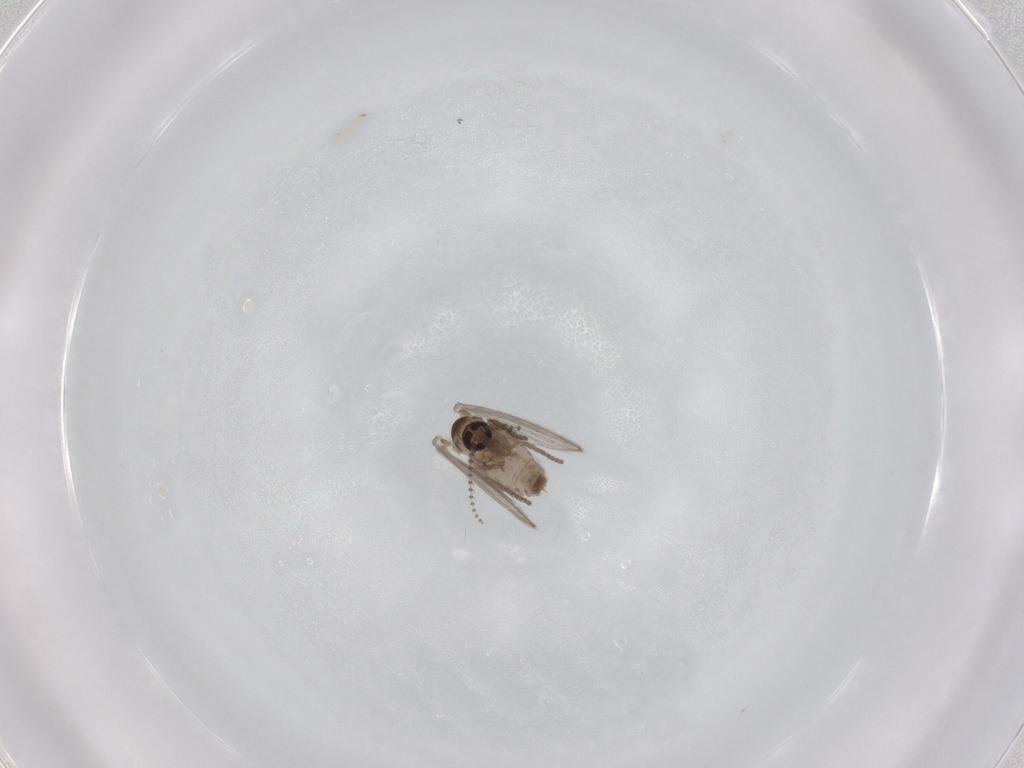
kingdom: Animalia
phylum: Arthropoda
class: Insecta
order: Diptera
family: Psychodidae
